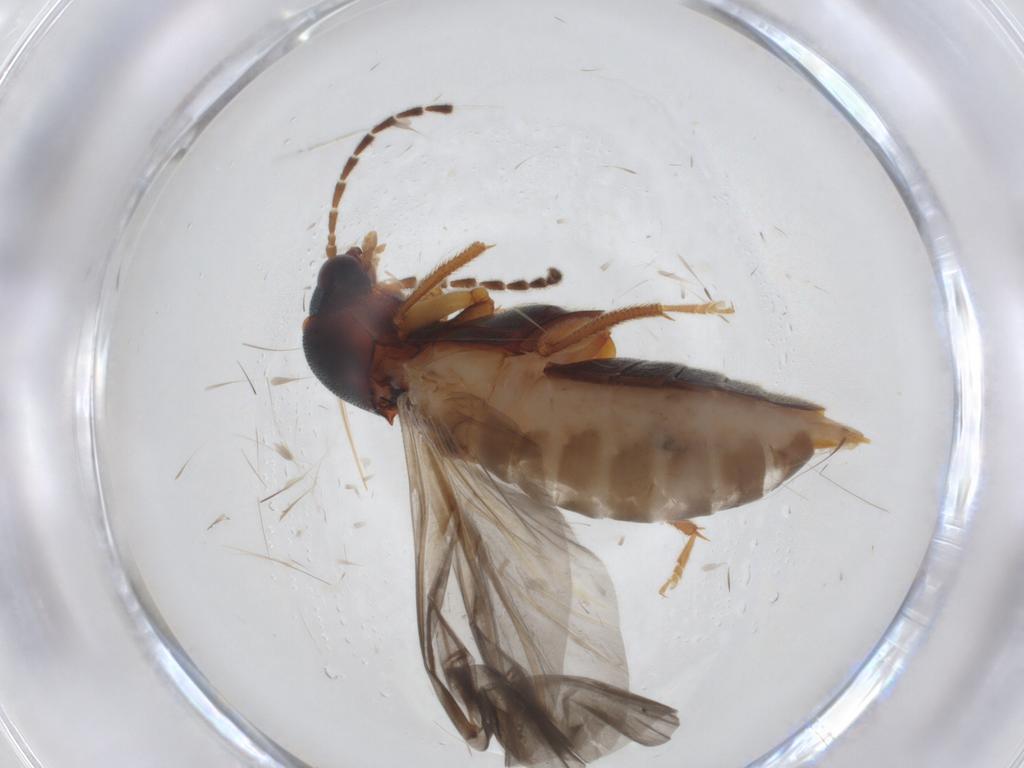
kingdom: Animalia
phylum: Arthropoda
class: Insecta
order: Coleoptera
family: Ptilodactylidae
